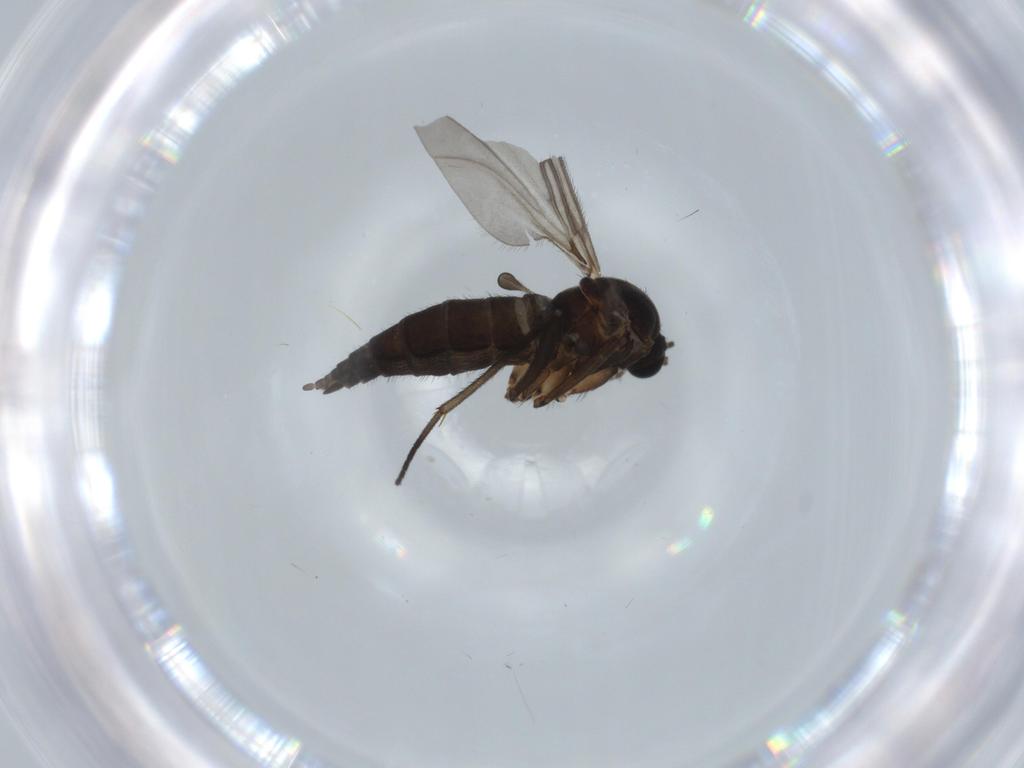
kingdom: Animalia
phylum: Arthropoda
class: Insecta
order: Diptera
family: Sciaridae
